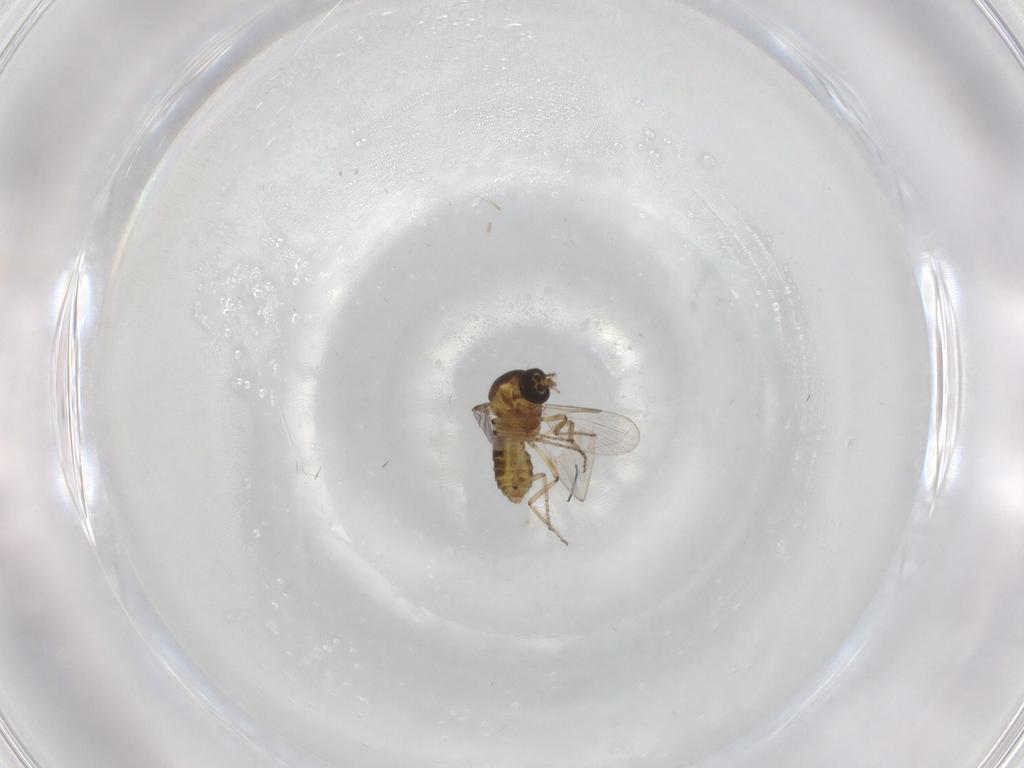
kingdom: Animalia
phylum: Arthropoda
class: Insecta
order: Diptera
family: Ceratopogonidae
